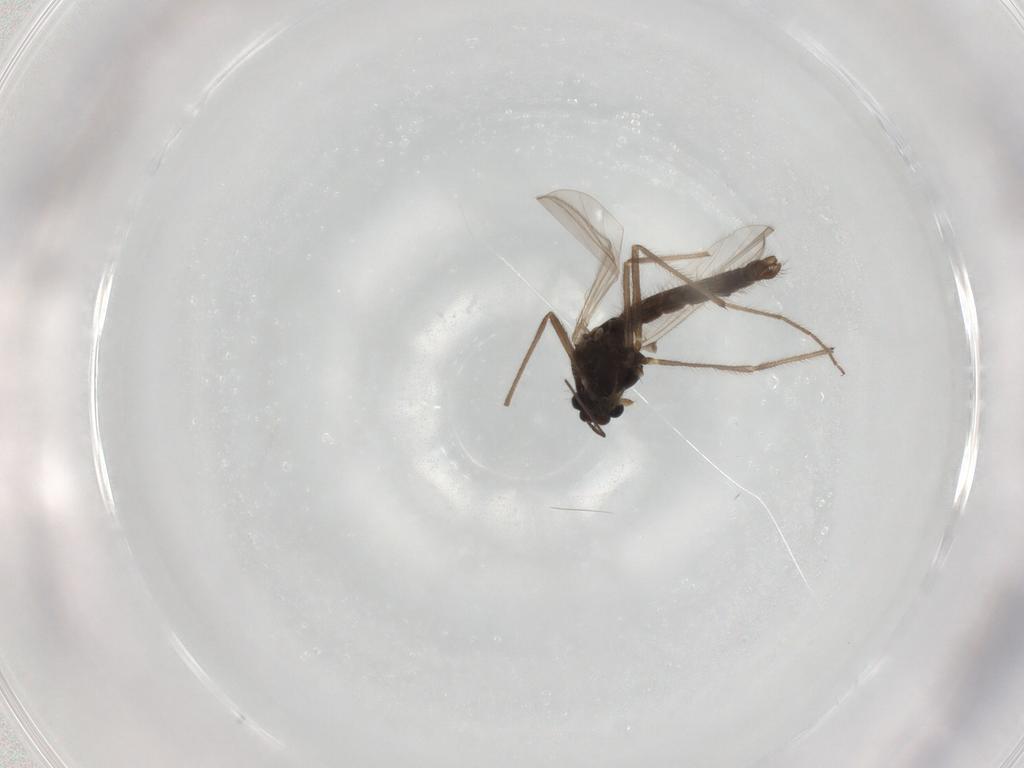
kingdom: Animalia
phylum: Arthropoda
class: Insecta
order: Diptera
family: Chironomidae
